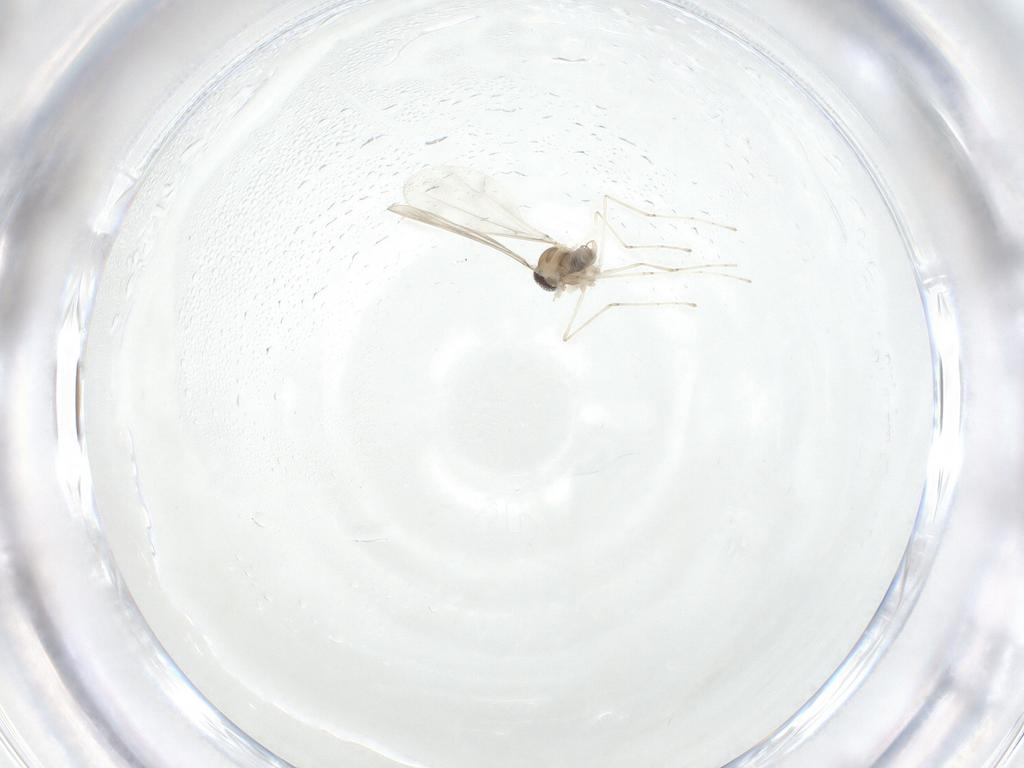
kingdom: Animalia
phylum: Arthropoda
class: Insecta
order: Diptera
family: Cecidomyiidae
